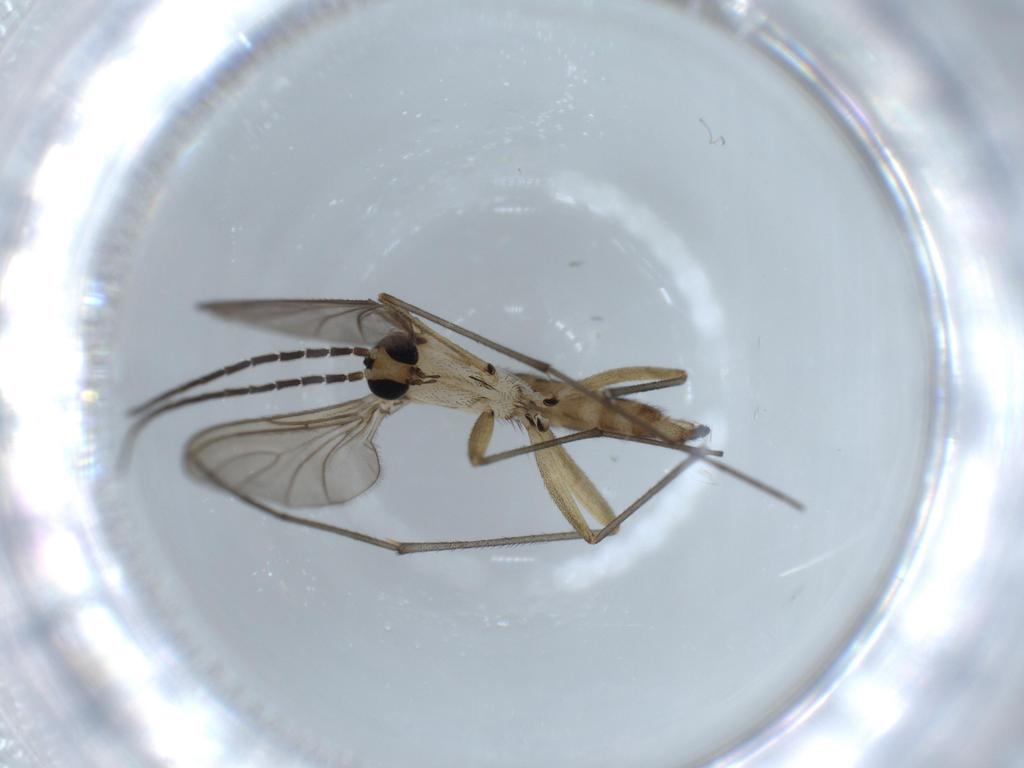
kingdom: Animalia
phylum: Arthropoda
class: Insecta
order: Diptera
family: Sciaridae
